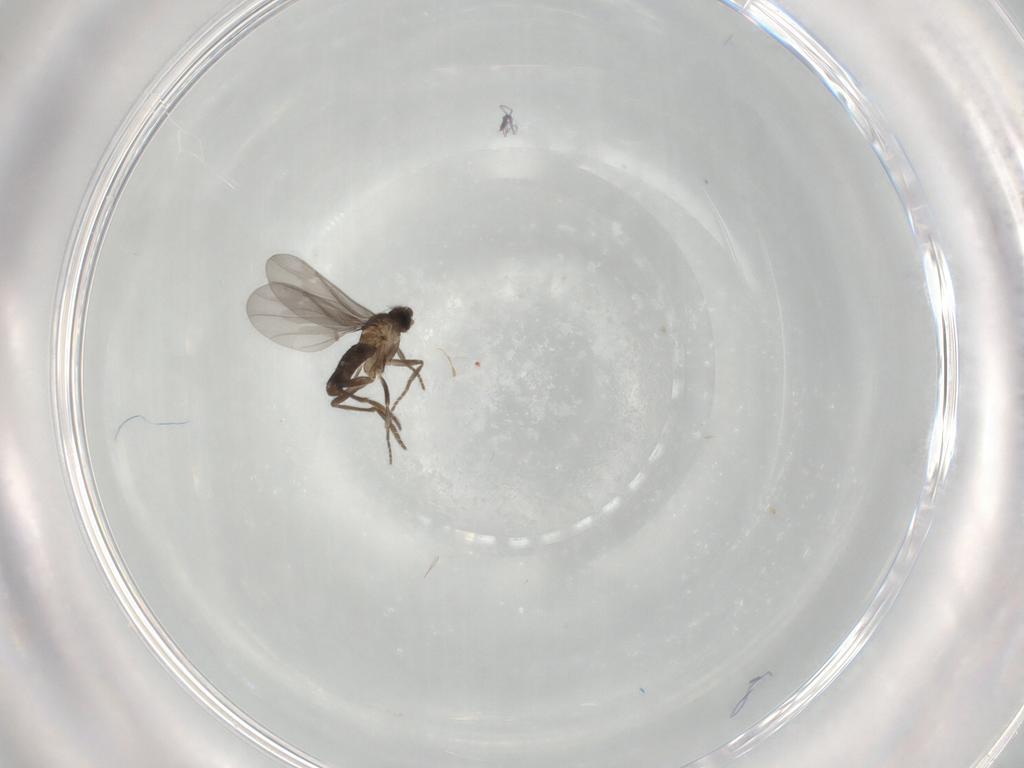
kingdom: Animalia
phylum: Arthropoda
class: Insecta
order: Diptera
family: Phoridae
